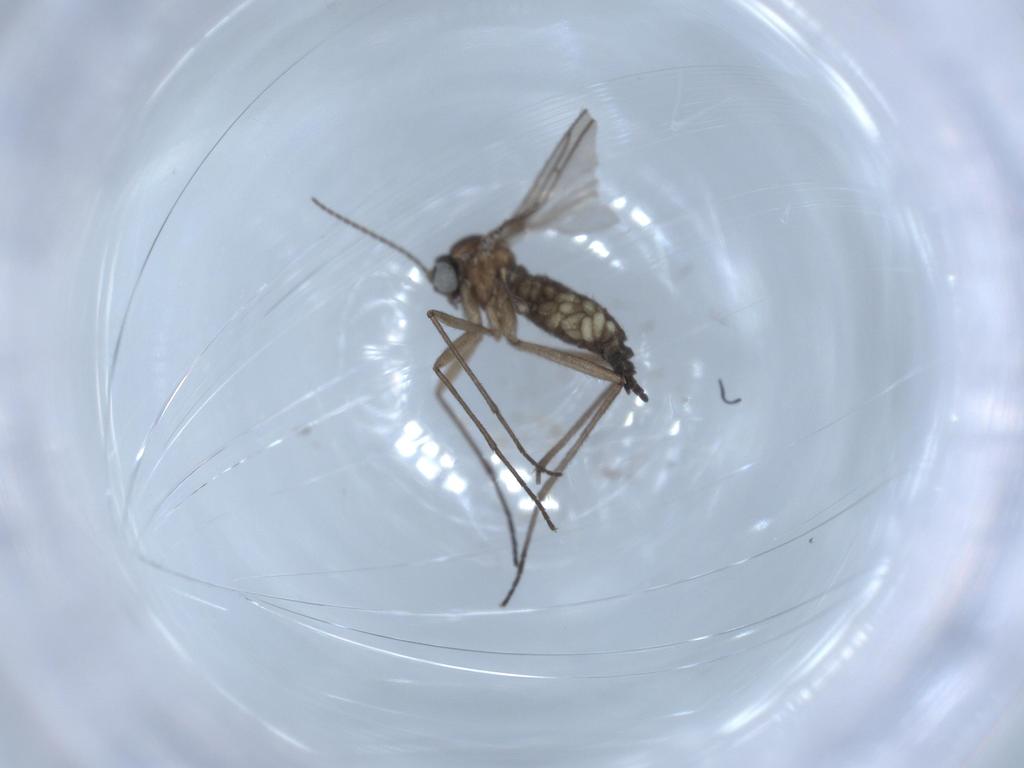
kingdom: Animalia
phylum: Arthropoda
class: Insecta
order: Diptera
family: Sciaridae
